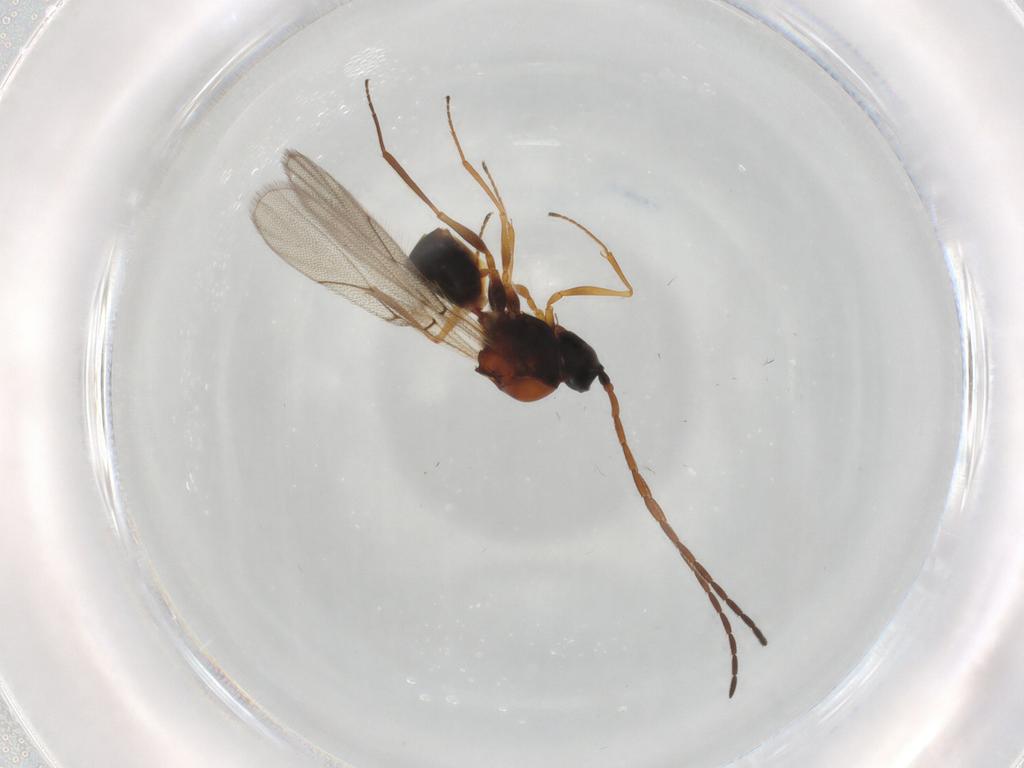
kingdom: Animalia
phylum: Arthropoda
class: Insecta
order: Hymenoptera
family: Figitidae
